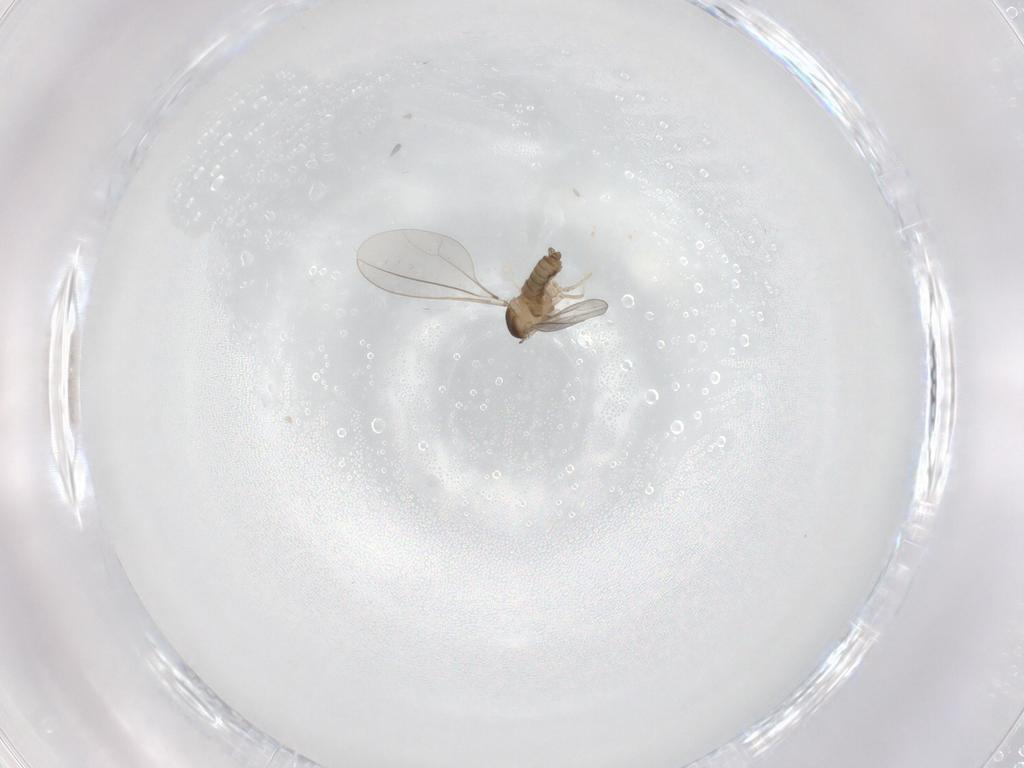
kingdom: Animalia
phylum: Arthropoda
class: Insecta
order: Diptera
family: Cecidomyiidae
